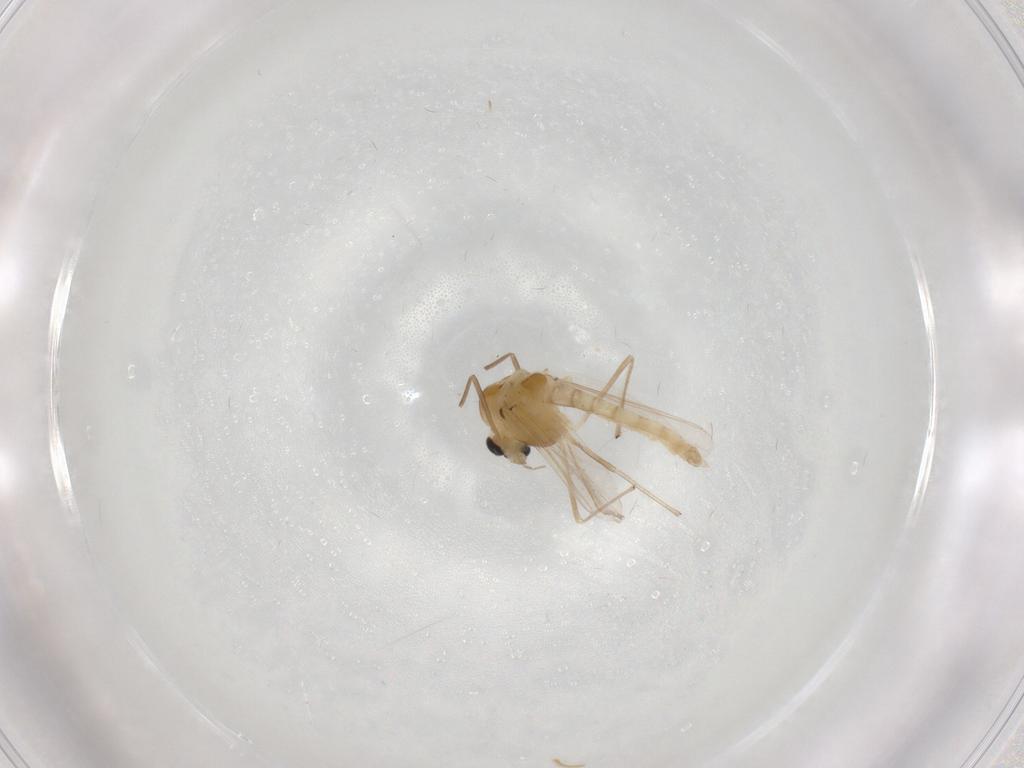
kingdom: Animalia
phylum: Arthropoda
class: Insecta
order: Diptera
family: Chironomidae
